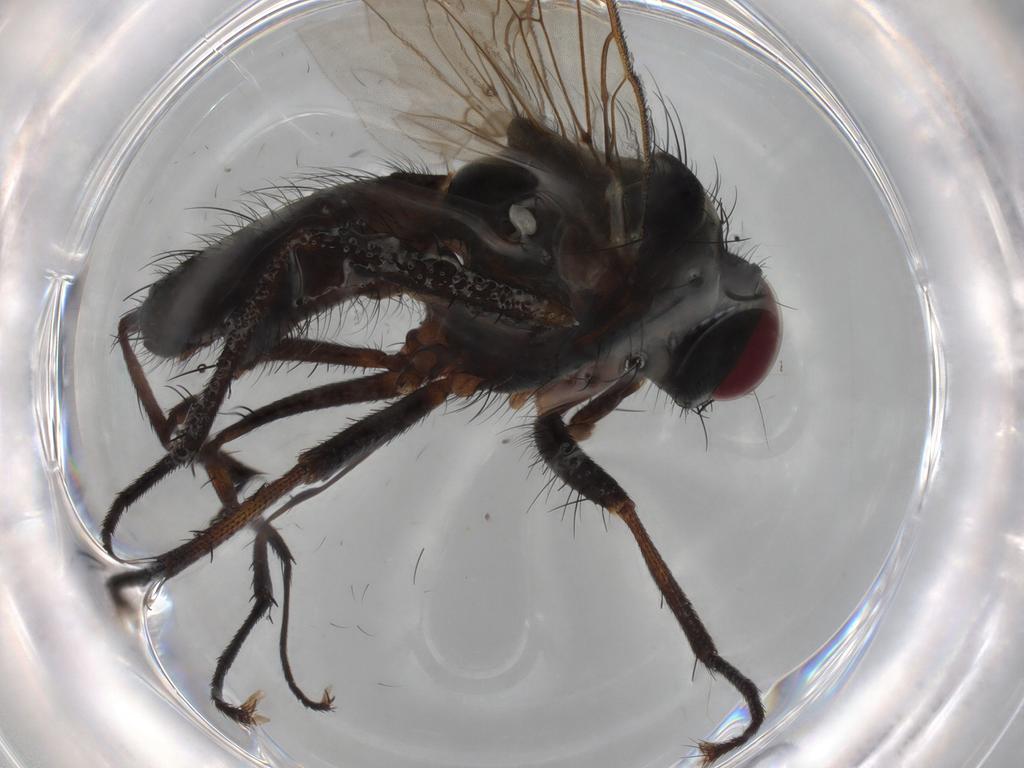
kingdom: Animalia
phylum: Arthropoda
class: Insecta
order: Diptera
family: Anthomyiidae
